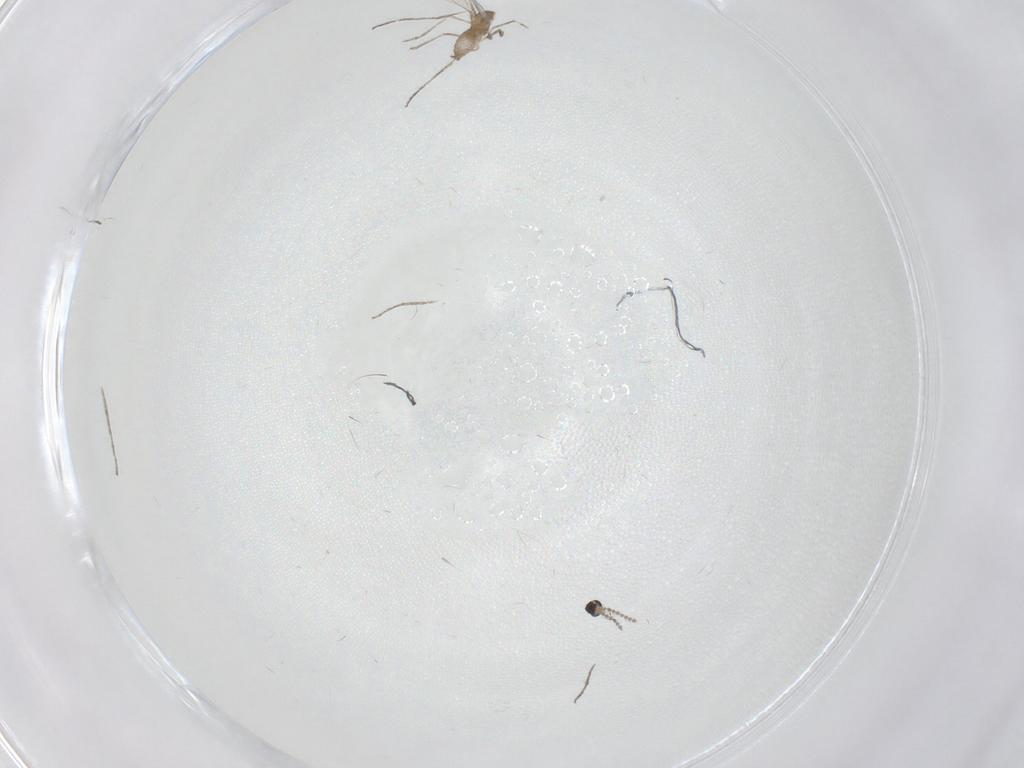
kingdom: Animalia
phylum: Arthropoda
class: Insecta
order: Diptera
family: Cecidomyiidae
